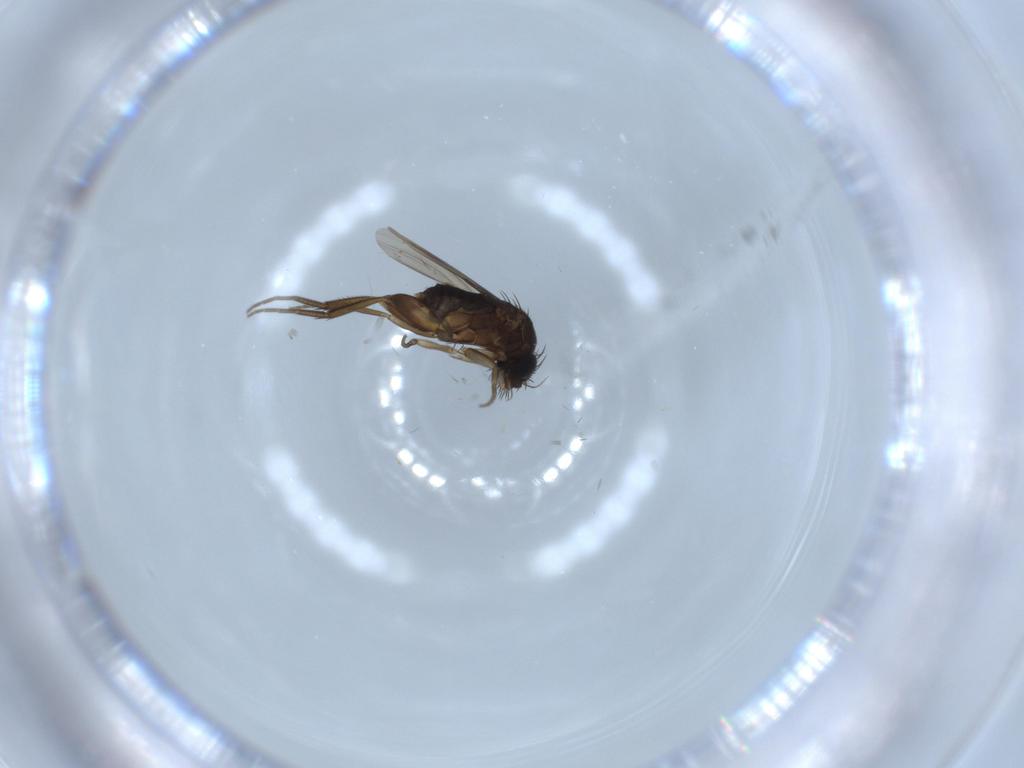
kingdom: Animalia
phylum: Arthropoda
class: Insecta
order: Diptera
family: Phoridae
